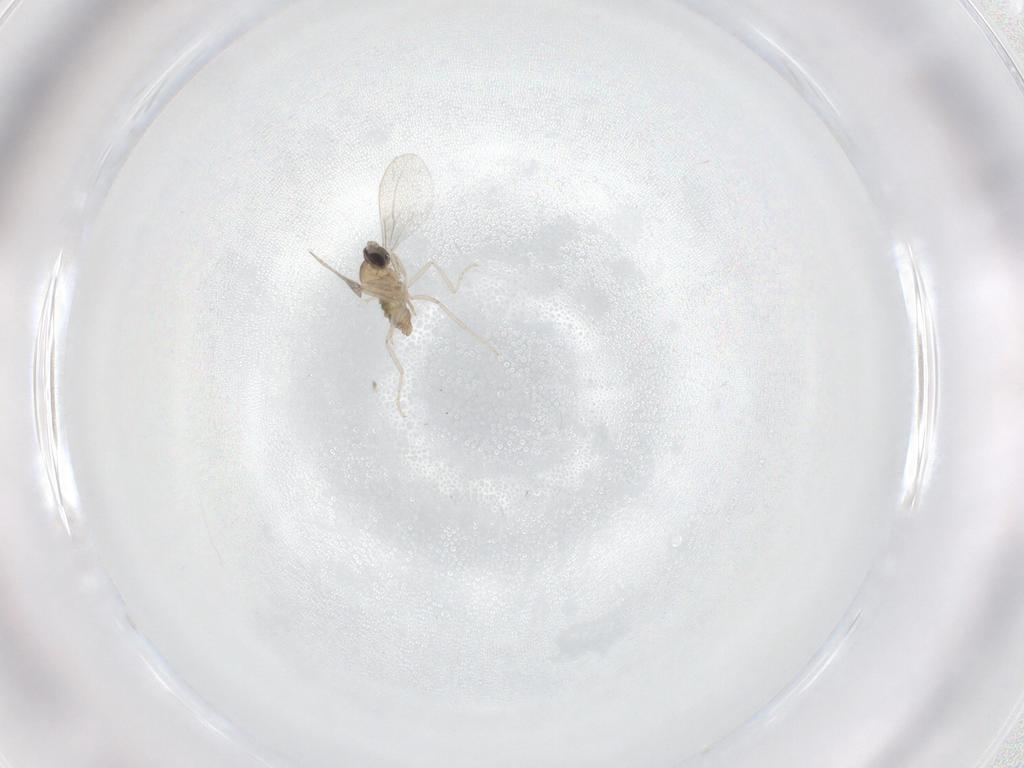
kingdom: Animalia
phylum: Arthropoda
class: Insecta
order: Diptera
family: Cecidomyiidae
